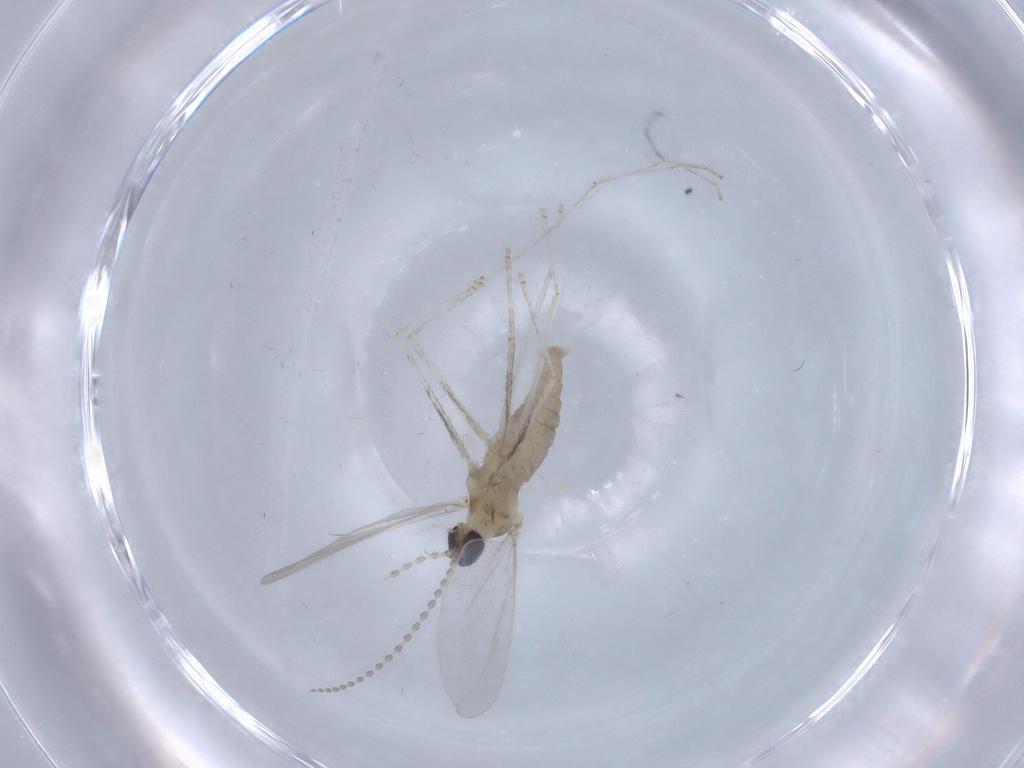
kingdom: Animalia
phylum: Arthropoda
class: Insecta
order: Diptera
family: Cecidomyiidae
